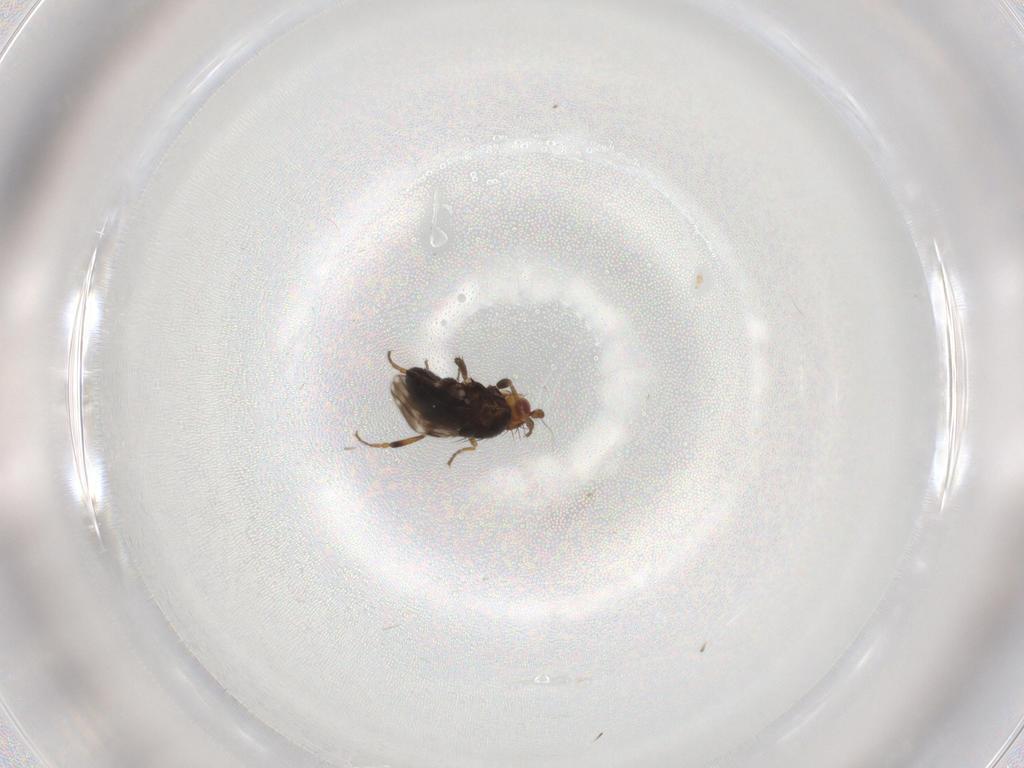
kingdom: Animalia
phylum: Arthropoda
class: Insecta
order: Diptera
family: Sphaeroceridae
